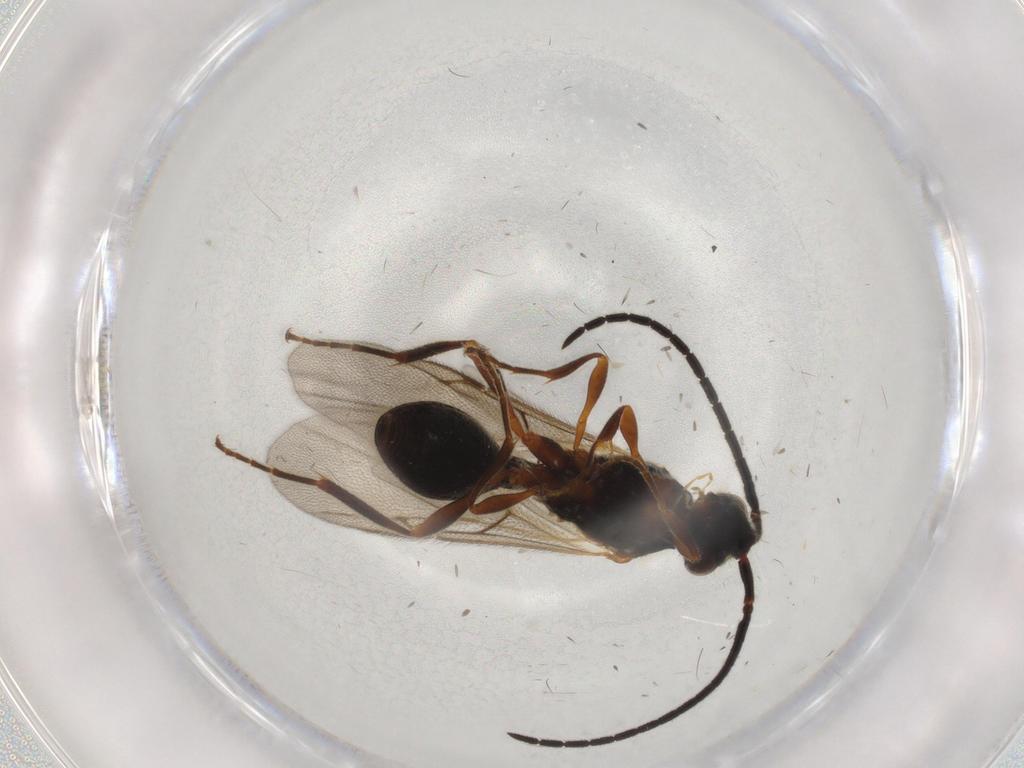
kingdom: Animalia
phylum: Arthropoda
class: Insecta
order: Hymenoptera
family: Diapriidae
